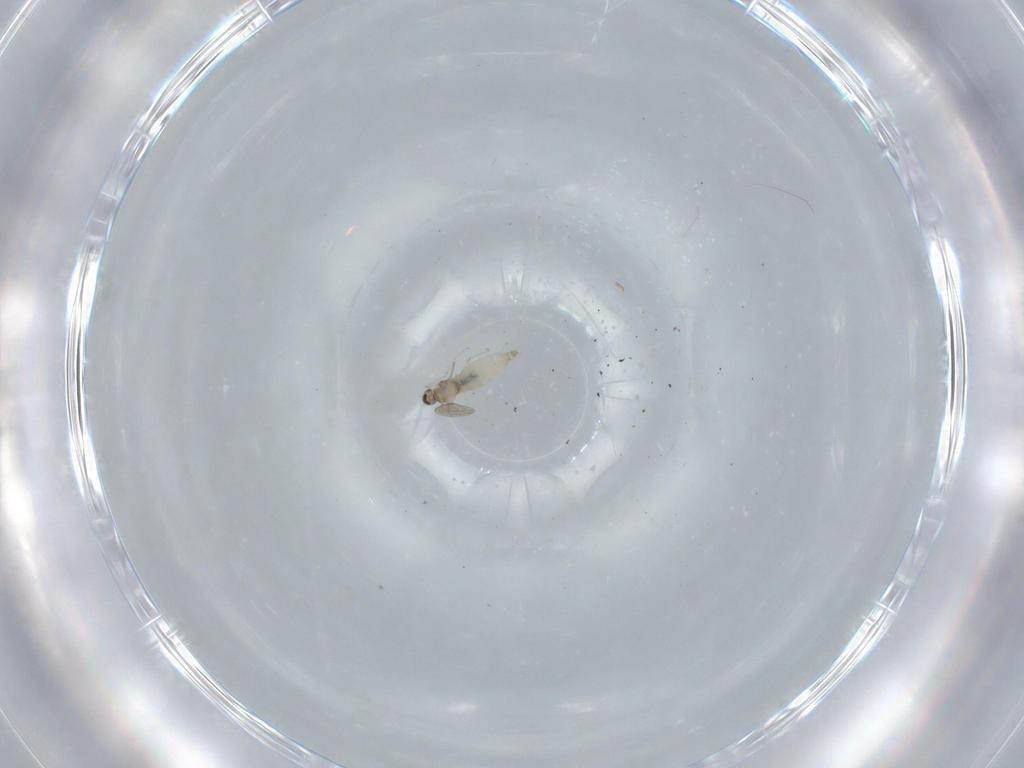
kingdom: Animalia
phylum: Arthropoda
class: Insecta
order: Diptera
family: Cecidomyiidae
